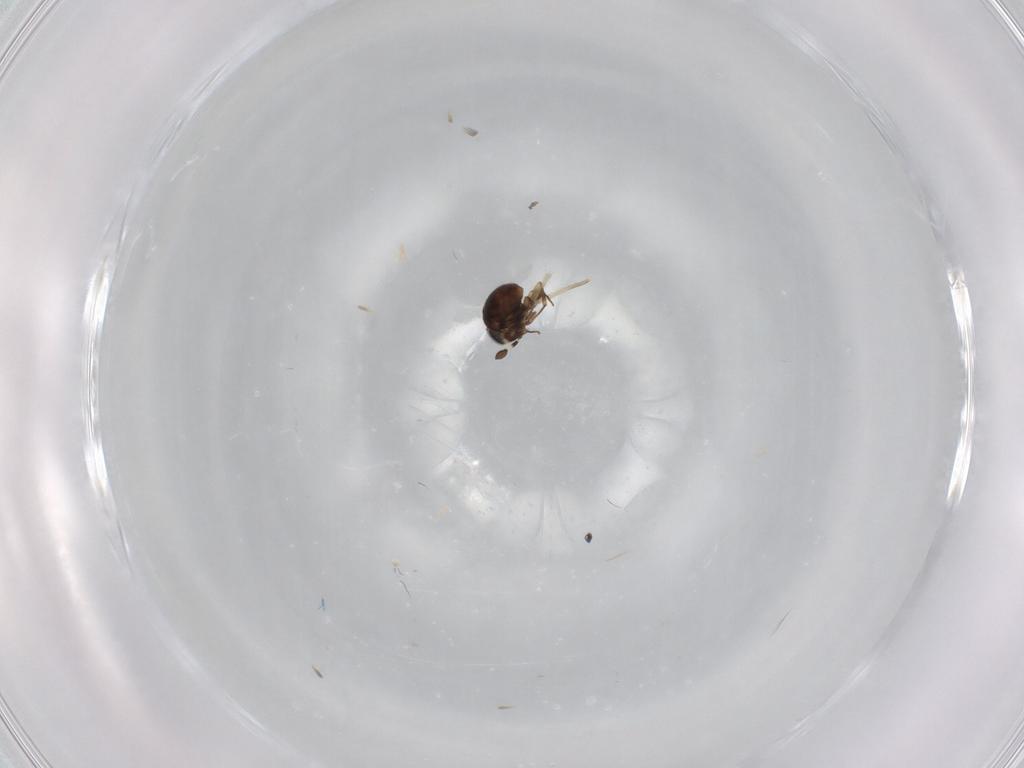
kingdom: Animalia
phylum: Arthropoda
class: Insecta
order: Hymenoptera
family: Scelionidae
